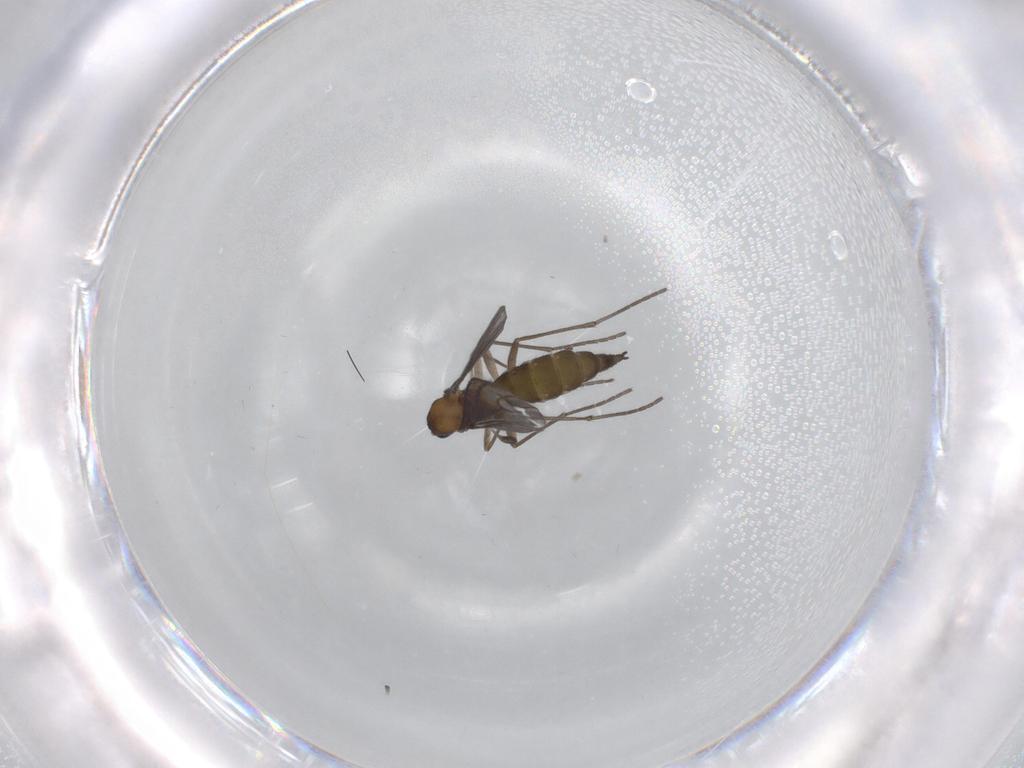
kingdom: Animalia
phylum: Arthropoda
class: Insecta
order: Diptera
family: Sciaridae
